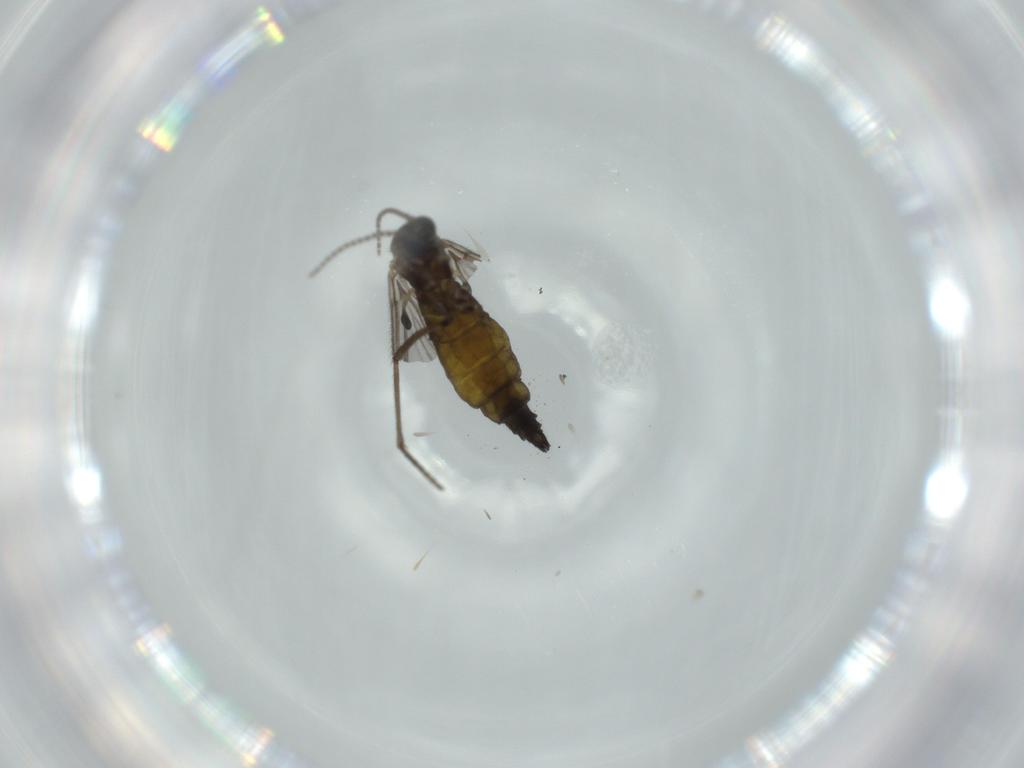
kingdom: Animalia
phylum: Arthropoda
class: Insecta
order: Diptera
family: Sciaridae
